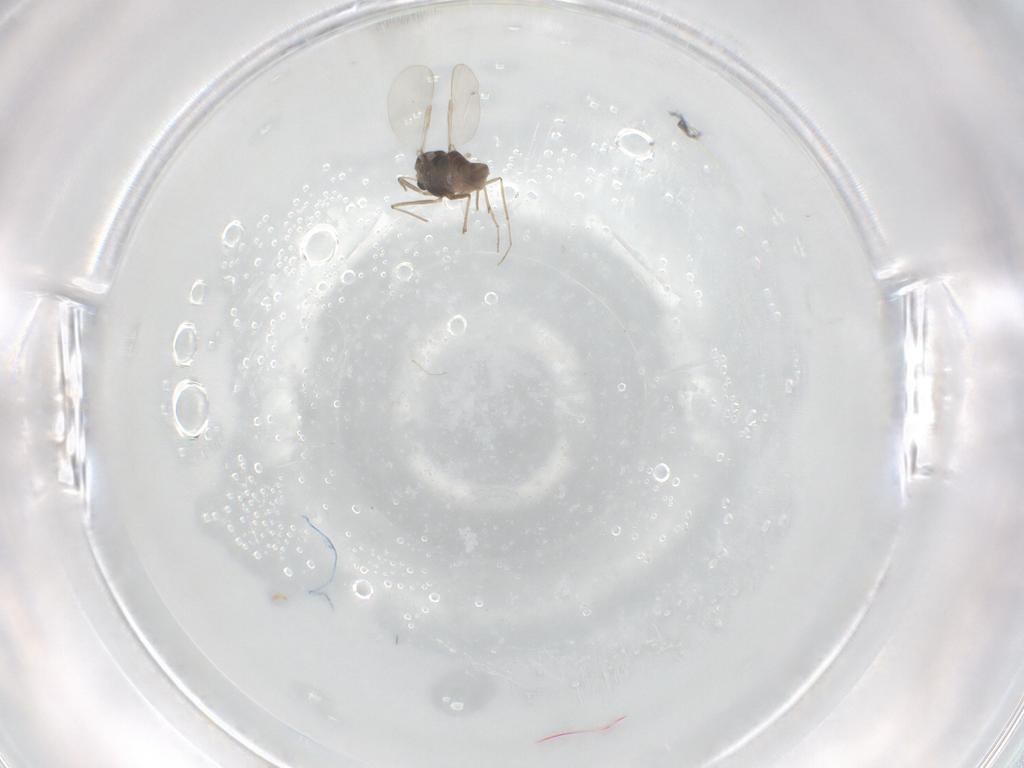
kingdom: Animalia
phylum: Arthropoda
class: Insecta
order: Diptera
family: Chironomidae
